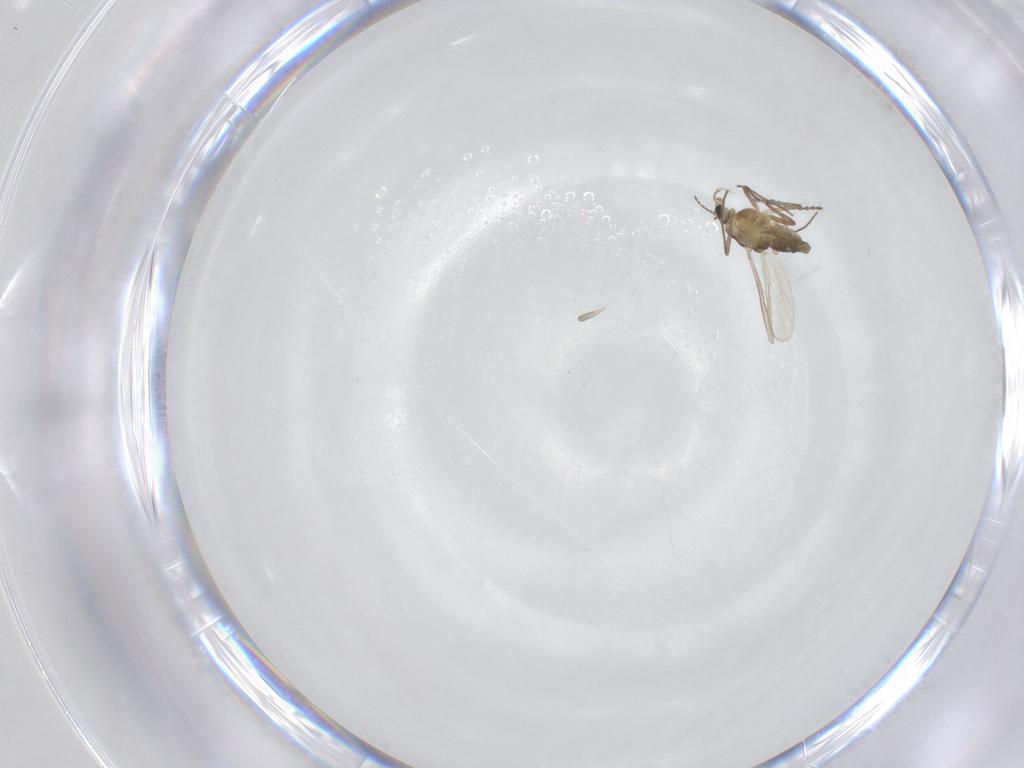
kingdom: Animalia
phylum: Arthropoda
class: Insecta
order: Diptera
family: Chironomidae
